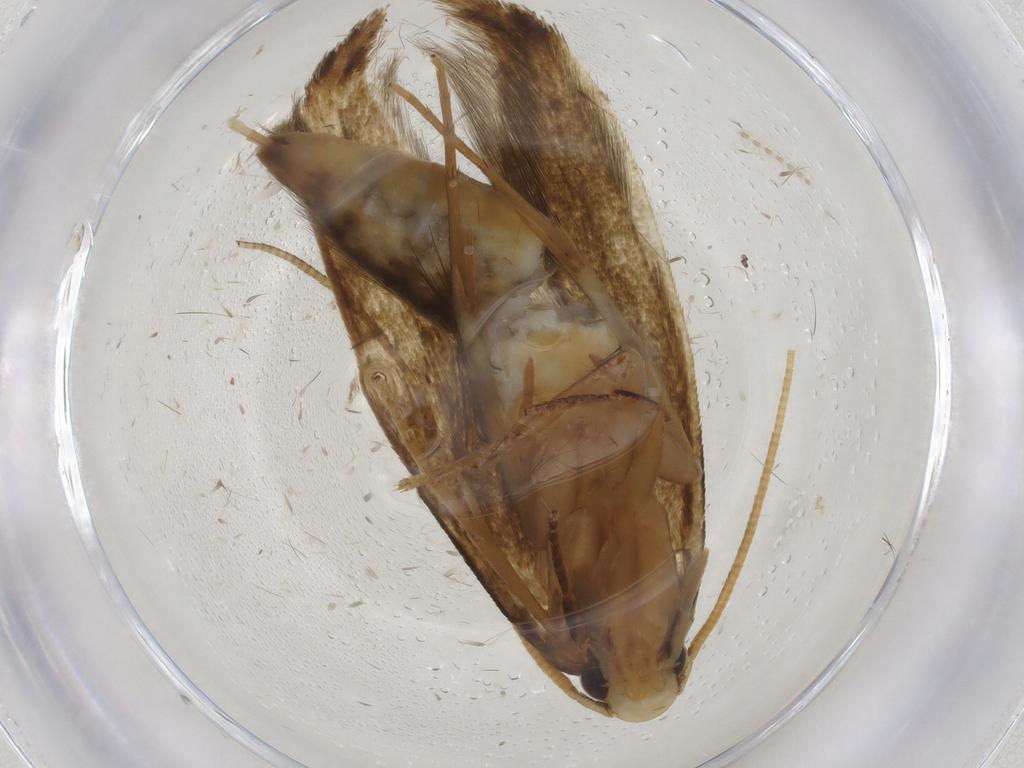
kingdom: Animalia
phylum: Arthropoda
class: Insecta
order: Lepidoptera
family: Tineidae
